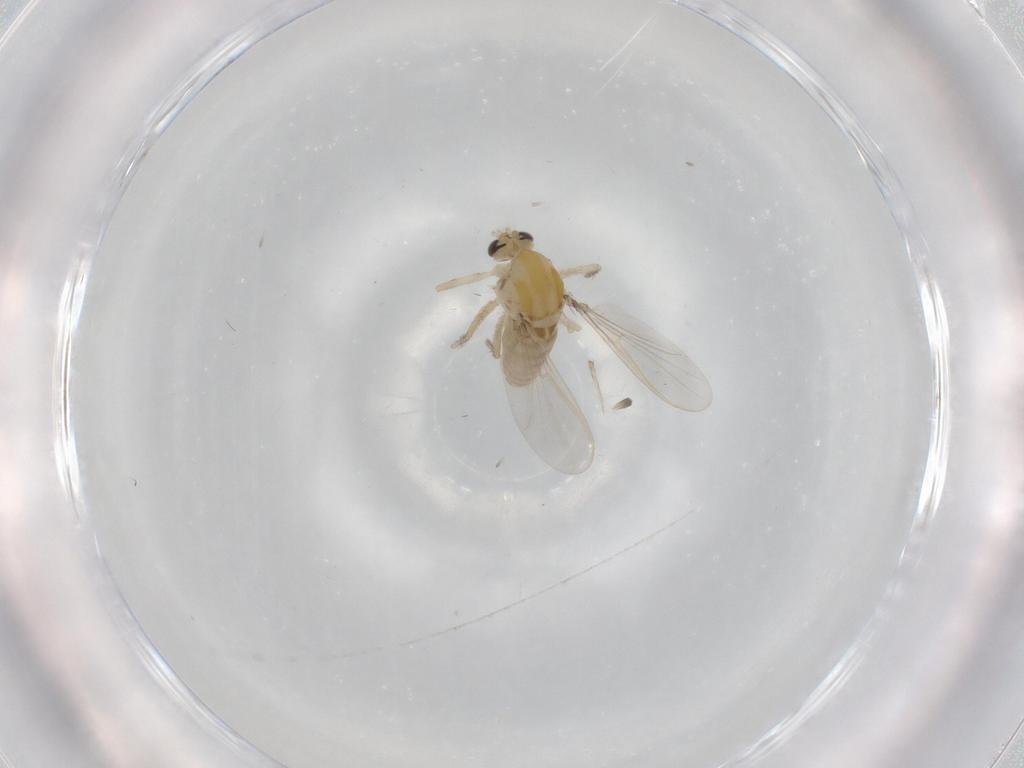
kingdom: Animalia
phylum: Arthropoda
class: Insecta
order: Diptera
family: Chironomidae
